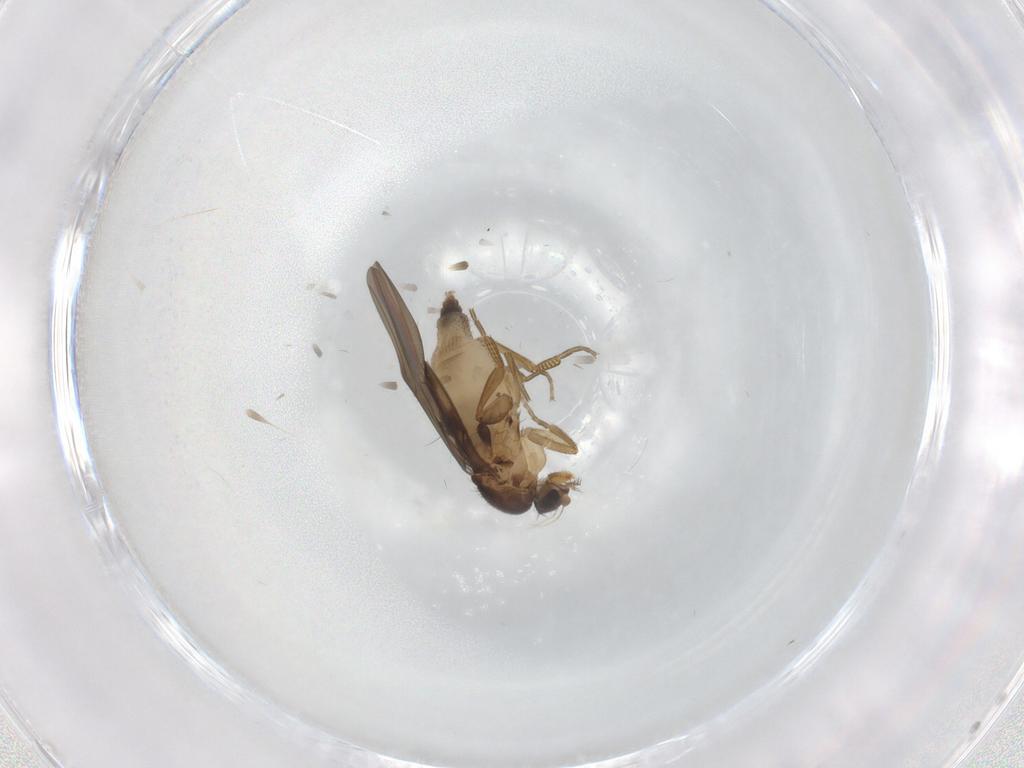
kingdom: Animalia
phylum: Arthropoda
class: Insecta
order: Diptera
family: Phoridae
